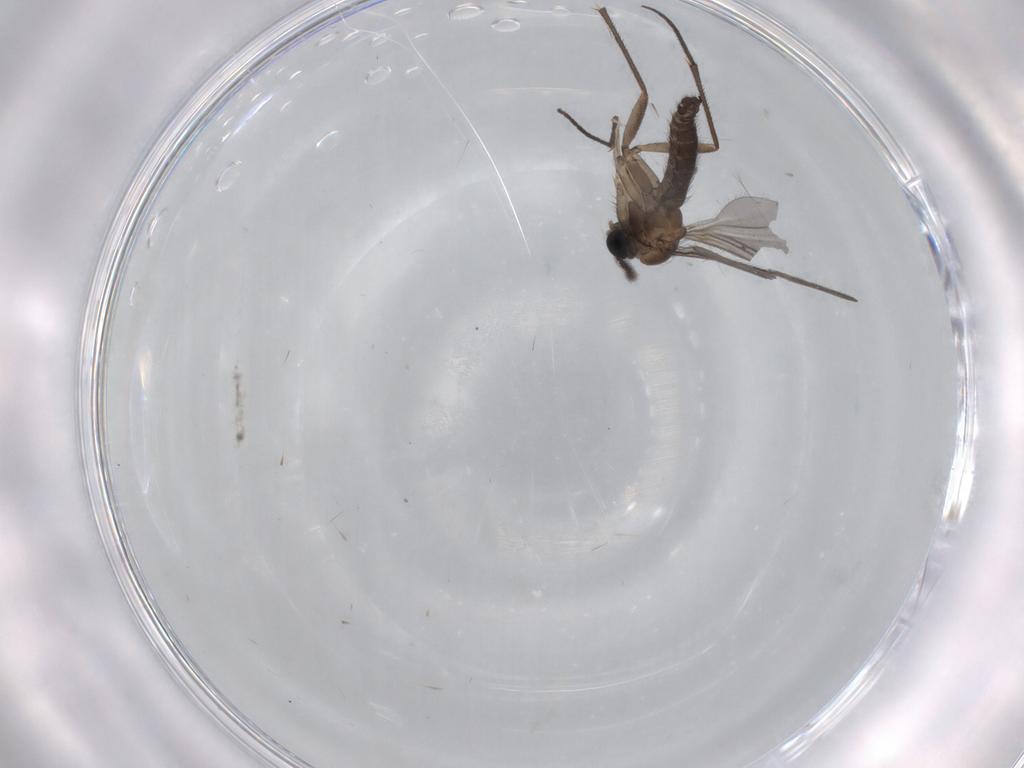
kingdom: Animalia
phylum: Arthropoda
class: Insecta
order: Diptera
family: Sciaridae
